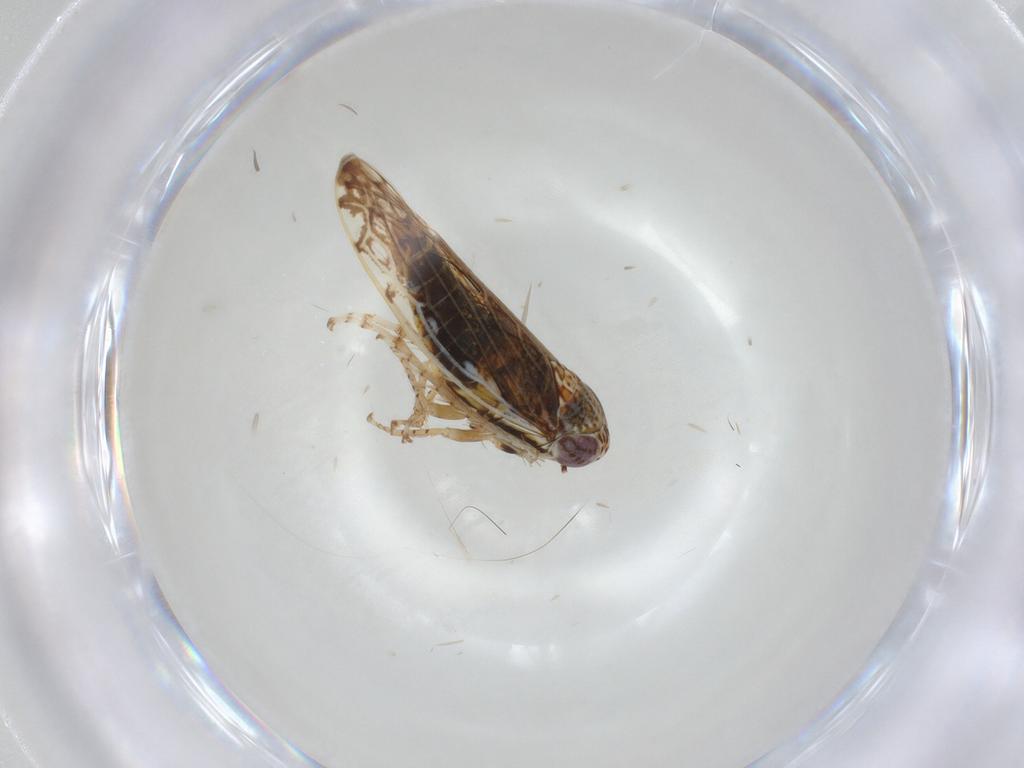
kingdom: Animalia
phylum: Arthropoda
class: Insecta
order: Hemiptera
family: Cicadellidae
